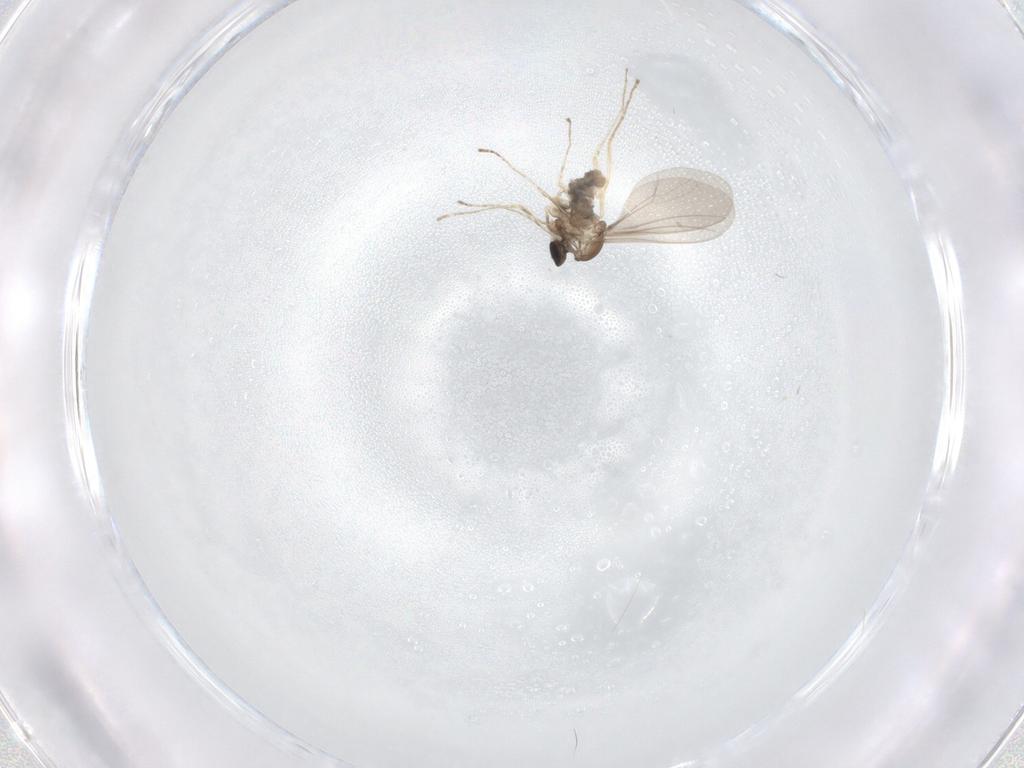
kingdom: Animalia
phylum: Arthropoda
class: Insecta
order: Diptera
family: Cecidomyiidae
